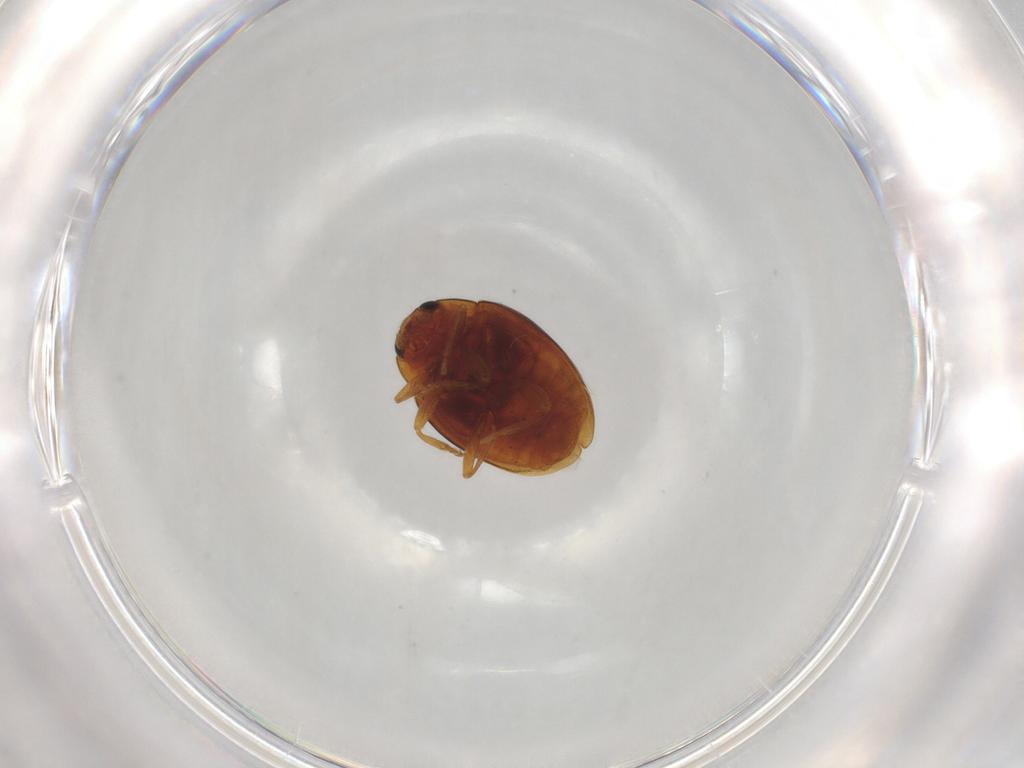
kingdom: Animalia
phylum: Arthropoda
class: Insecta
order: Coleoptera
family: Coccinellidae
